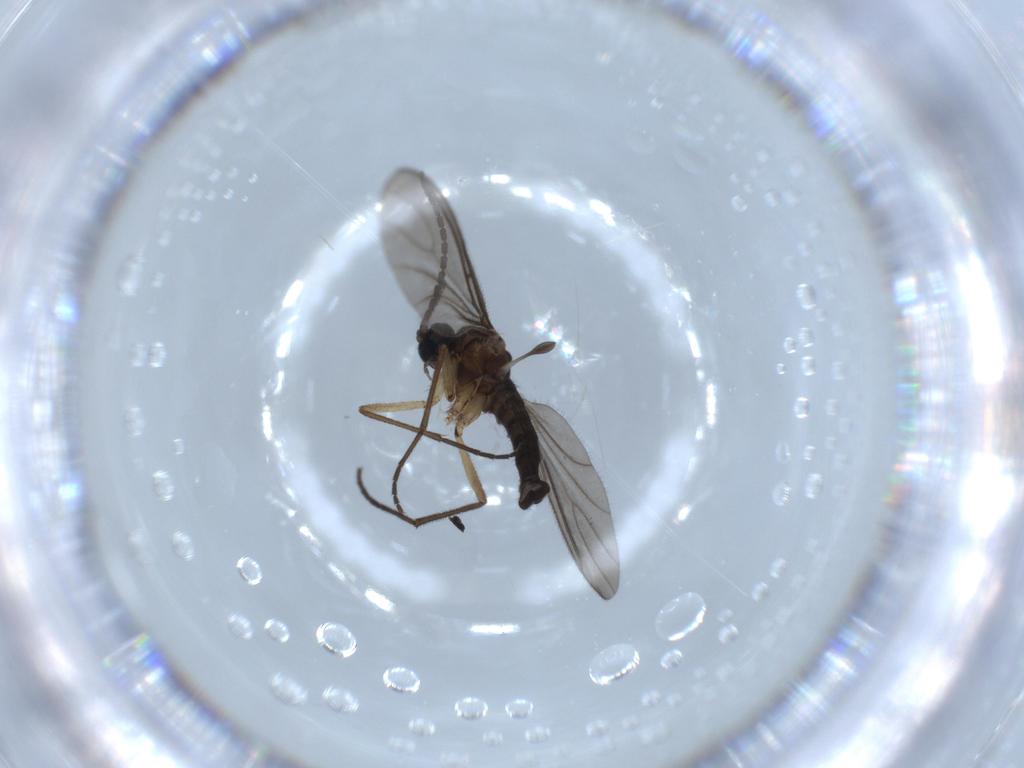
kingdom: Animalia
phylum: Arthropoda
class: Insecta
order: Diptera
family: Sciaridae
